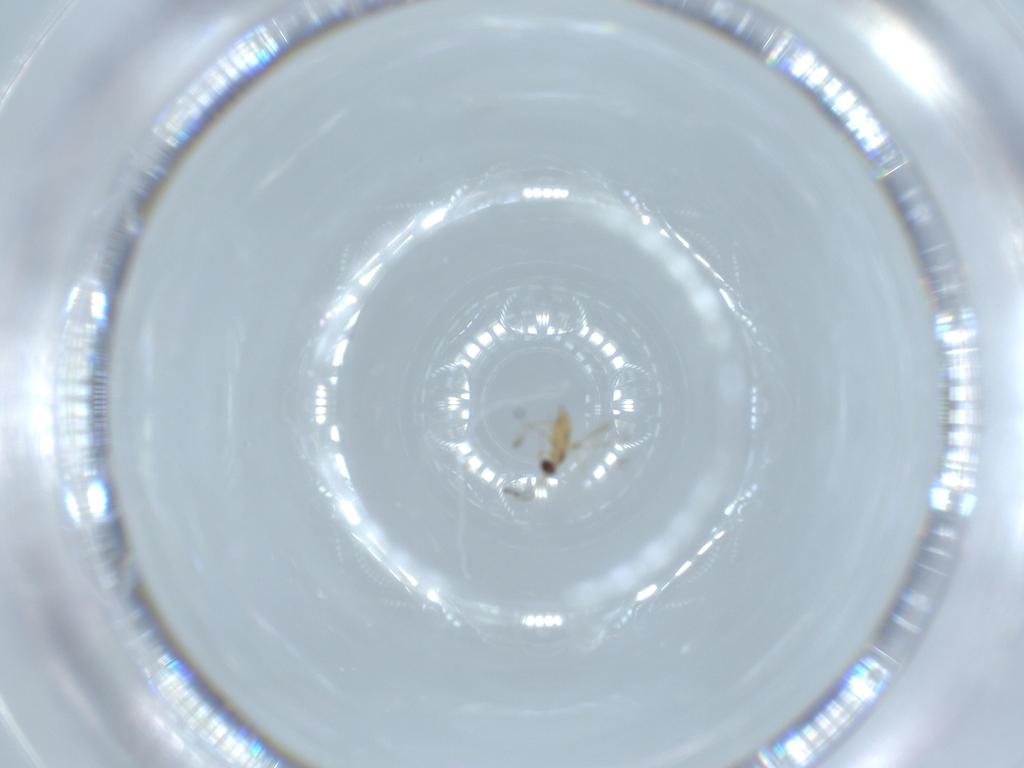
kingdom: Animalia
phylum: Arthropoda
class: Insecta
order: Hymenoptera
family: Mymaridae
